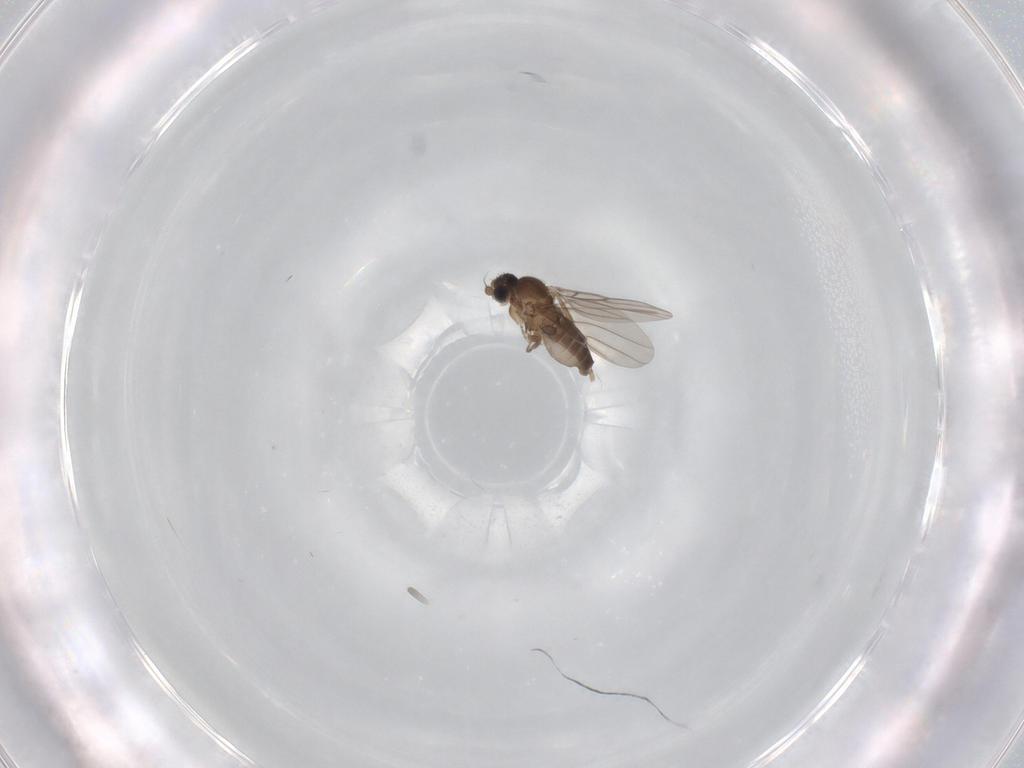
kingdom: Animalia
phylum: Arthropoda
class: Insecta
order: Diptera
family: Phoridae
